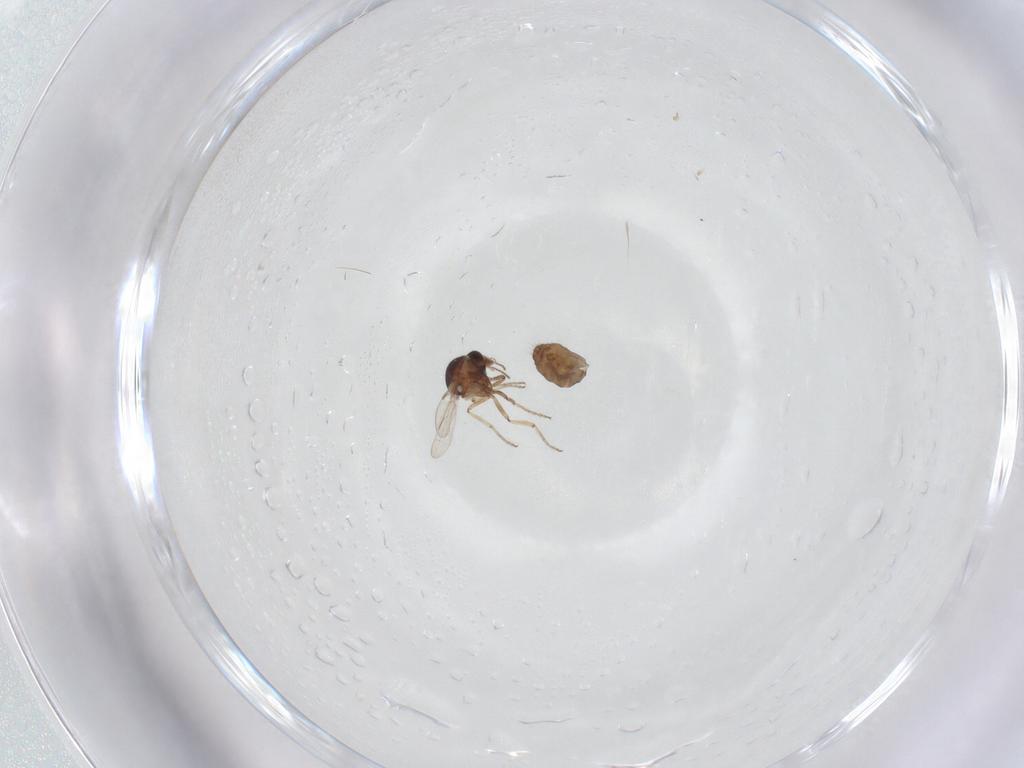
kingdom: Animalia
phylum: Arthropoda
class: Insecta
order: Diptera
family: Ceratopogonidae
